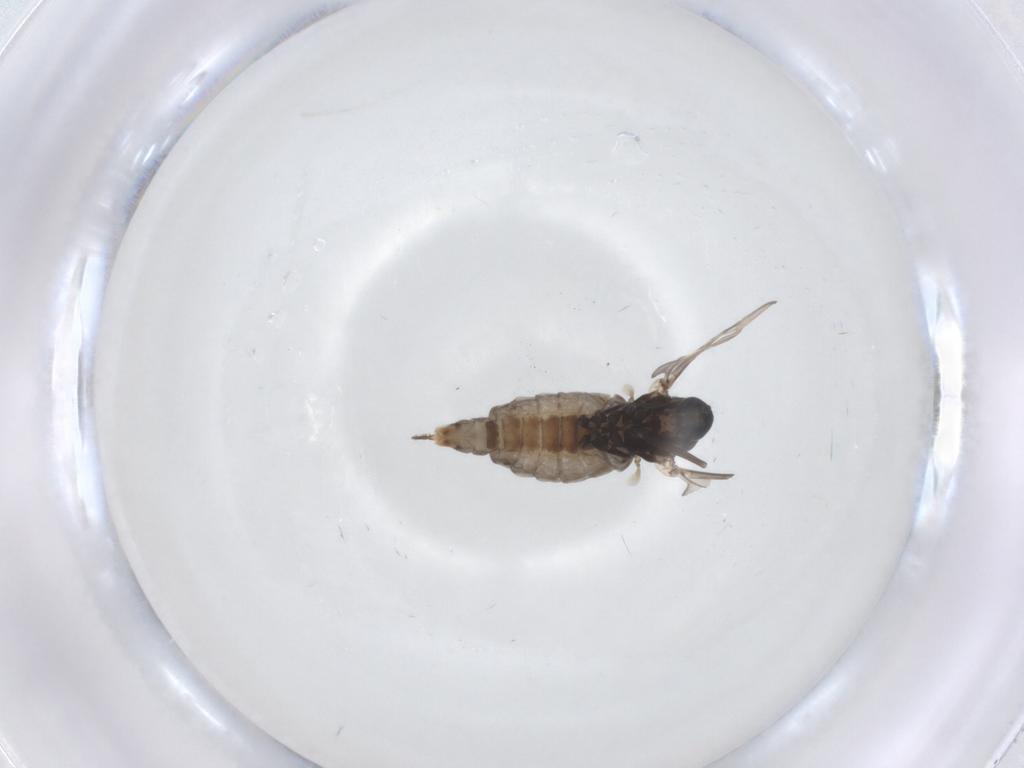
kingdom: Animalia
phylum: Arthropoda
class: Insecta
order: Diptera
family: Cecidomyiidae
